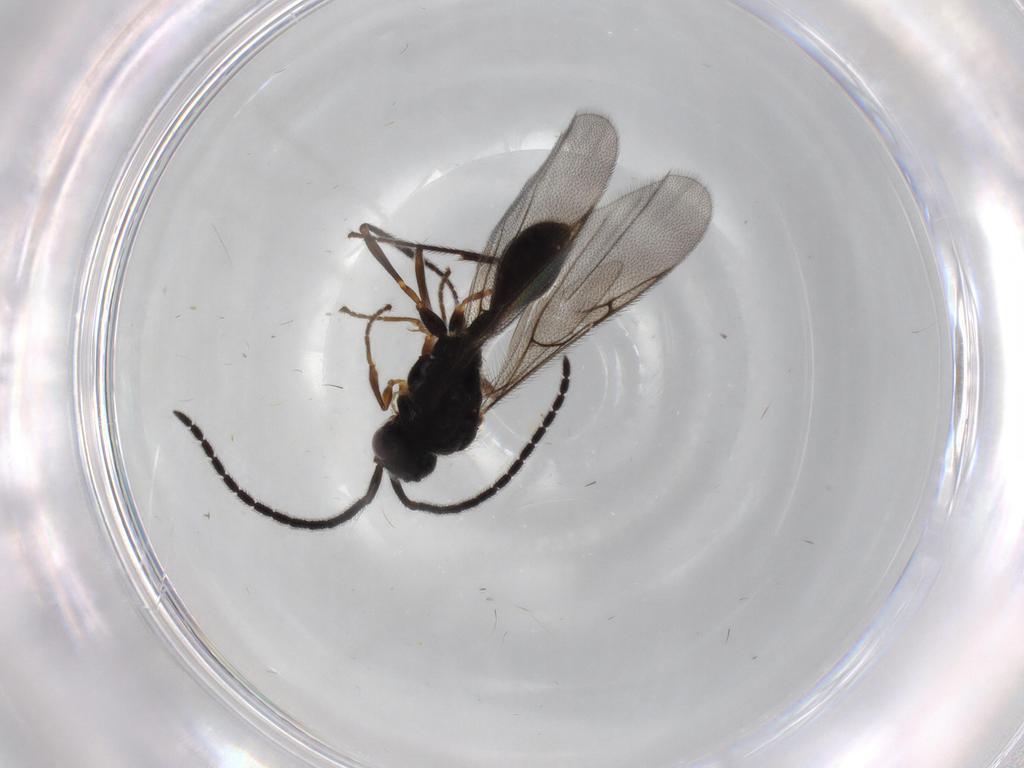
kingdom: Animalia
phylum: Arthropoda
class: Insecta
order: Hymenoptera
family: Diapriidae
